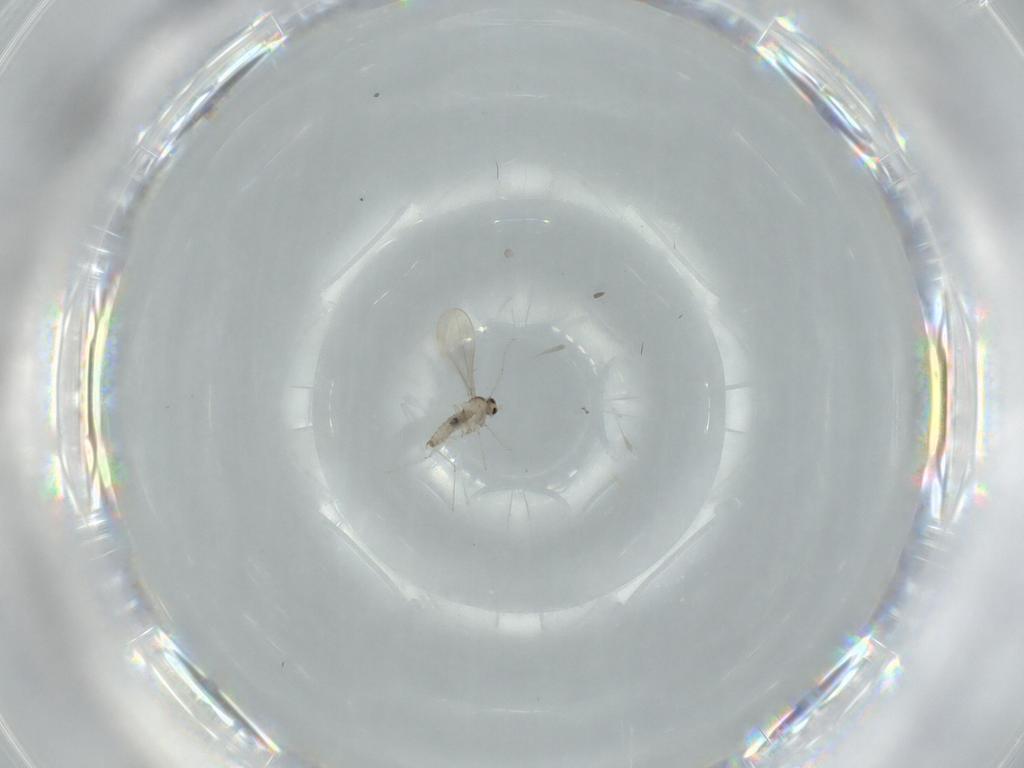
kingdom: Animalia
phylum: Arthropoda
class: Insecta
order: Diptera
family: Cecidomyiidae
